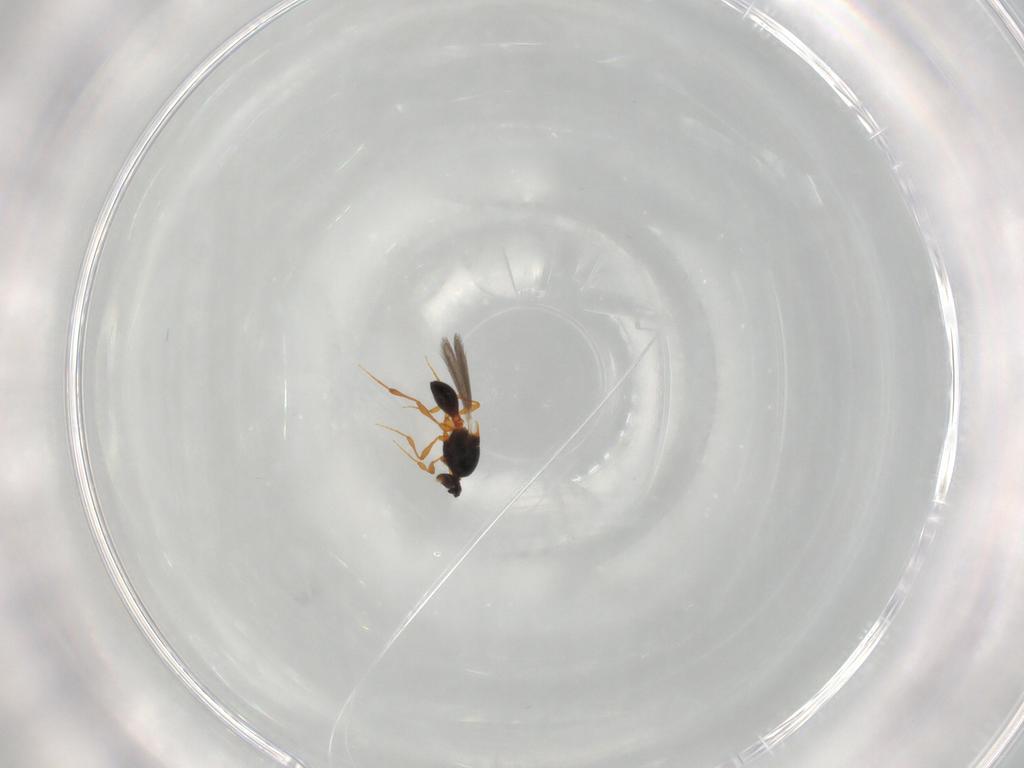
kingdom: Animalia
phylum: Arthropoda
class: Insecta
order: Hymenoptera
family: Platygastridae
